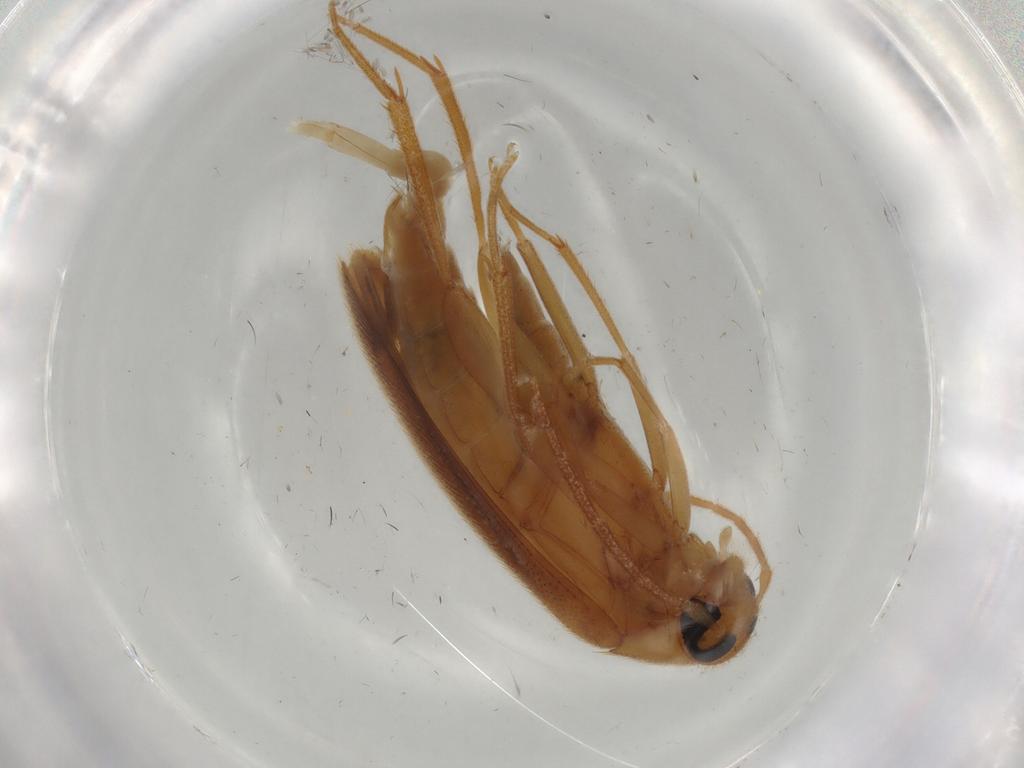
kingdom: Animalia
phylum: Arthropoda
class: Insecta
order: Coleoptera
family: Scraptiidae
